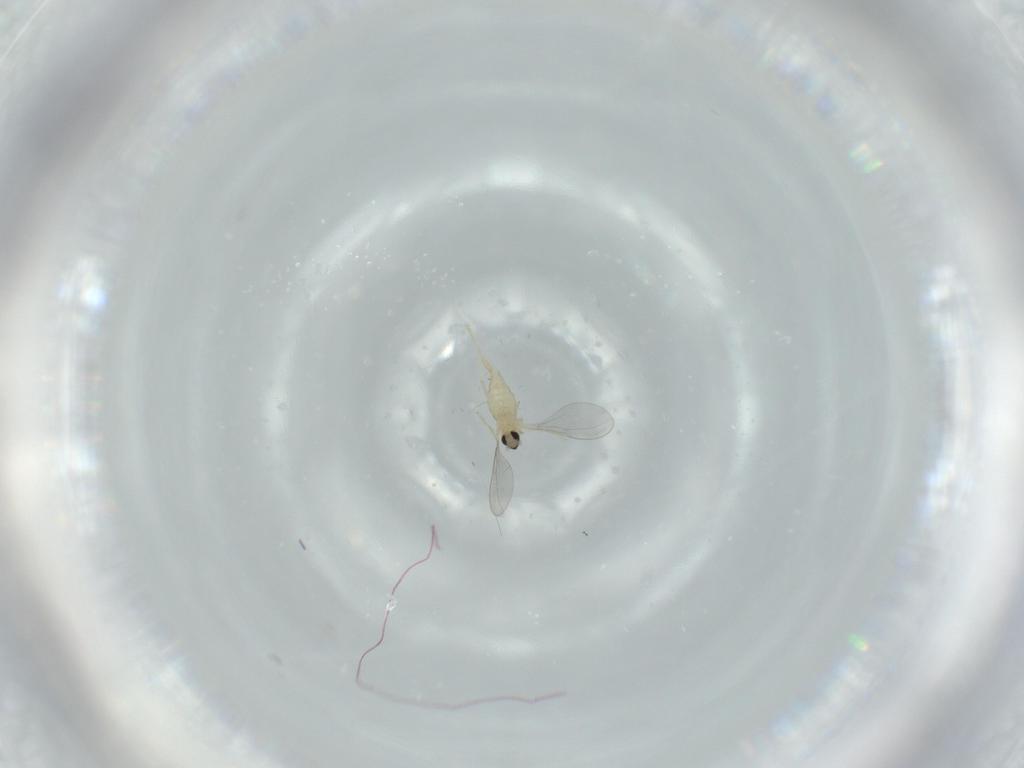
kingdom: Animalia
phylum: Arthropoda
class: Insecta
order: Diptera
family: Cecidomyiidae
